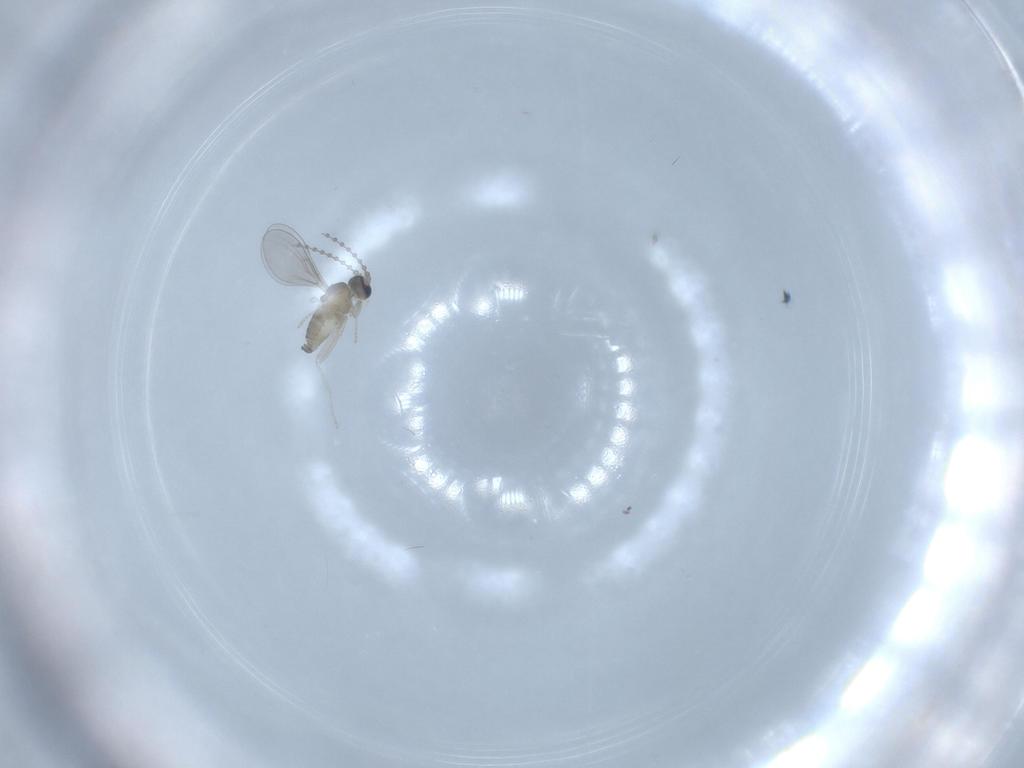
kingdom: Animalia
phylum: Arthropoda
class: Insecta
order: Diptera
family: Cecidomyiidae
